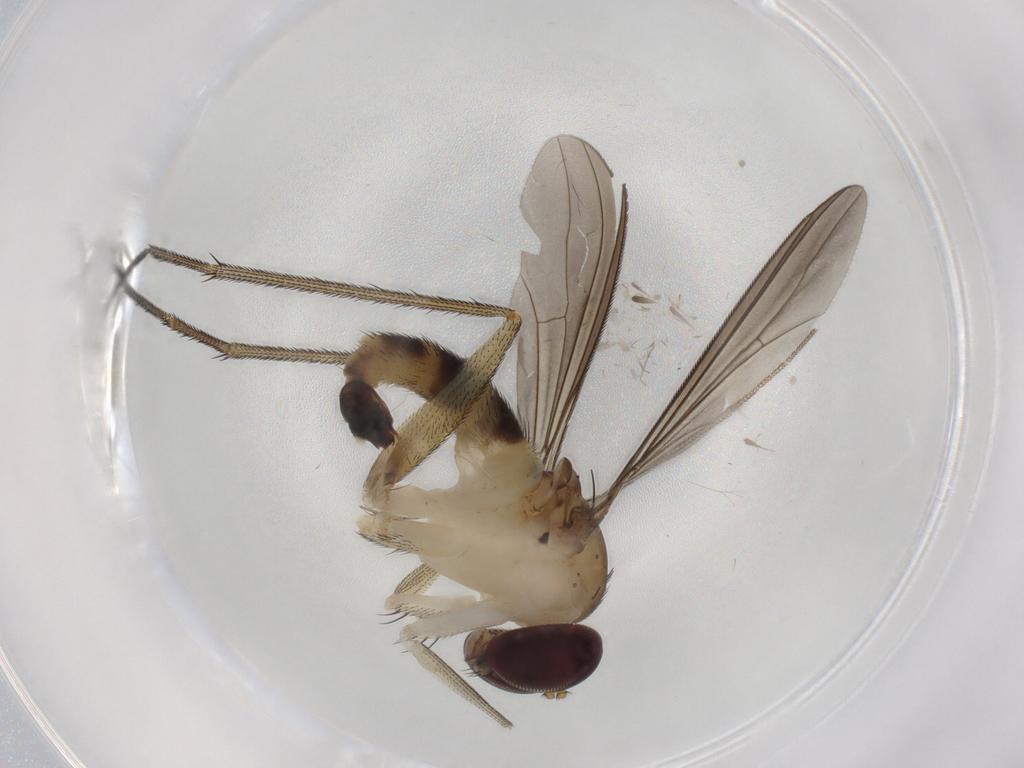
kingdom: Animalia
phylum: Arthropoda
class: Insecta
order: Diptera
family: Dolichopodidae
